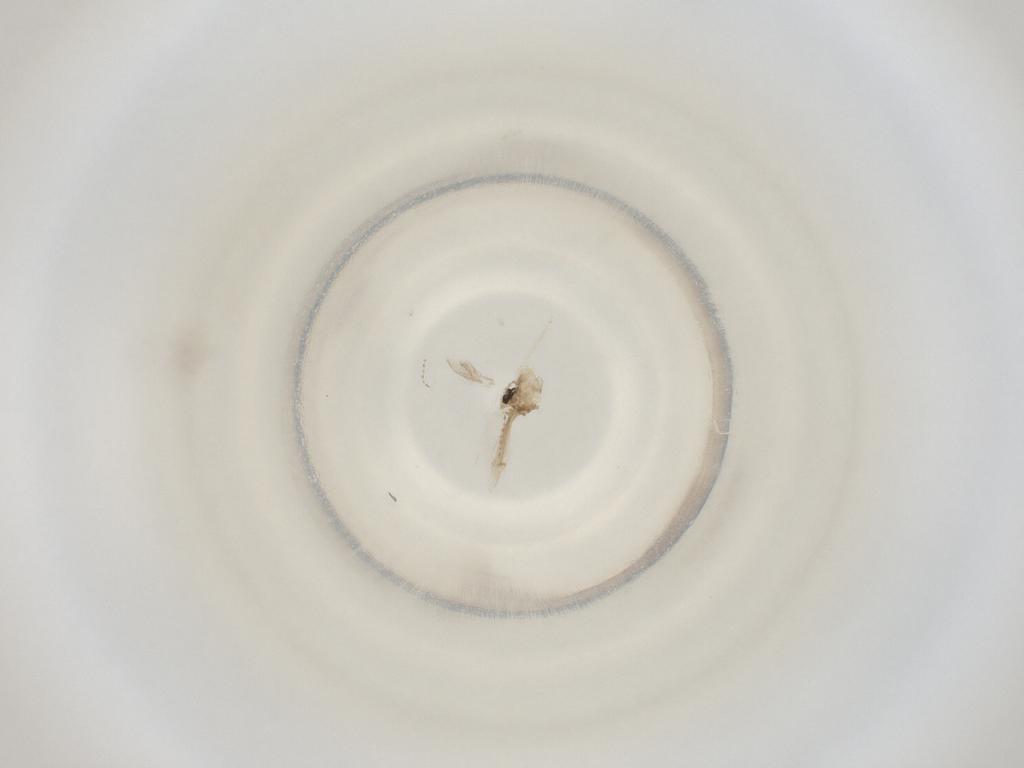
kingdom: Animalia
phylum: Arthropoda
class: Insecta
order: Diptera
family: Cecidomyiidae
